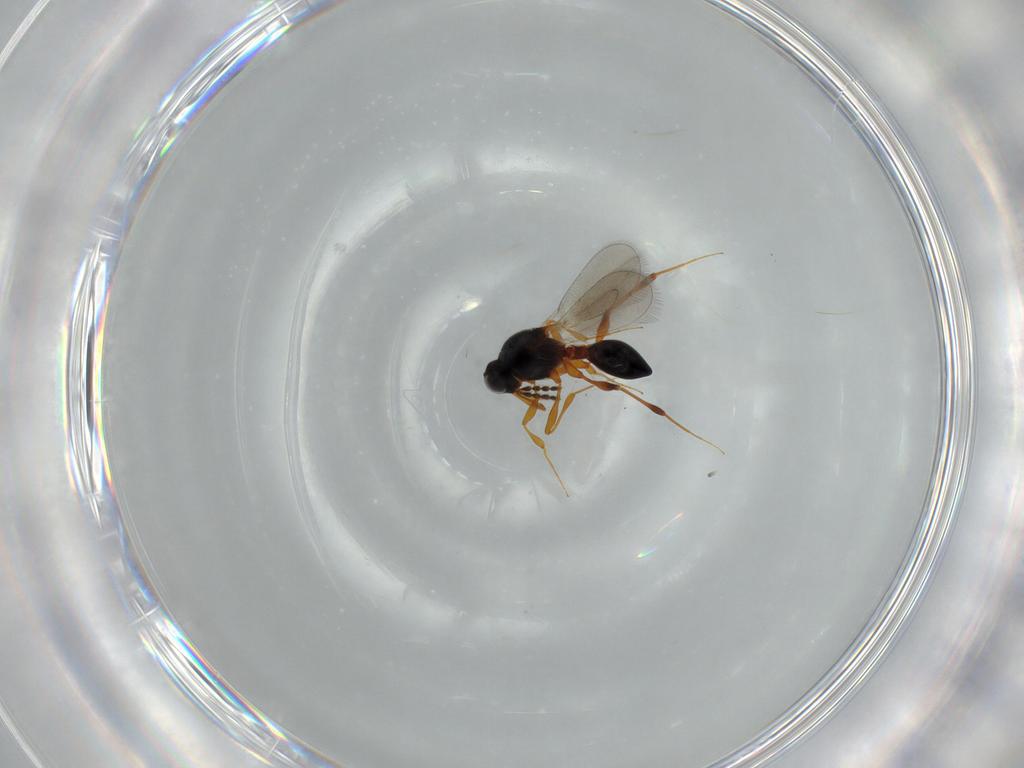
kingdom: Animalia
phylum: Arthropoda
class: Insecta
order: Hymenoptera
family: Platygastridae
